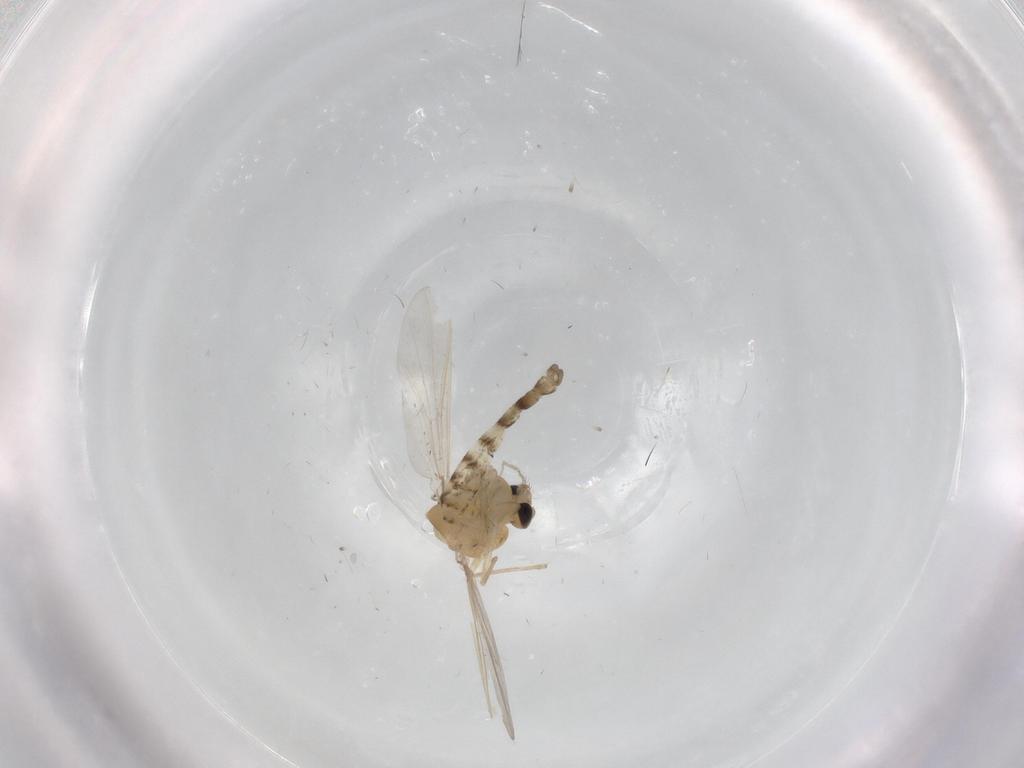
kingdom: Animalia
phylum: Arthropoda
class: Insecta
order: Diptera
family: Chironomidae
